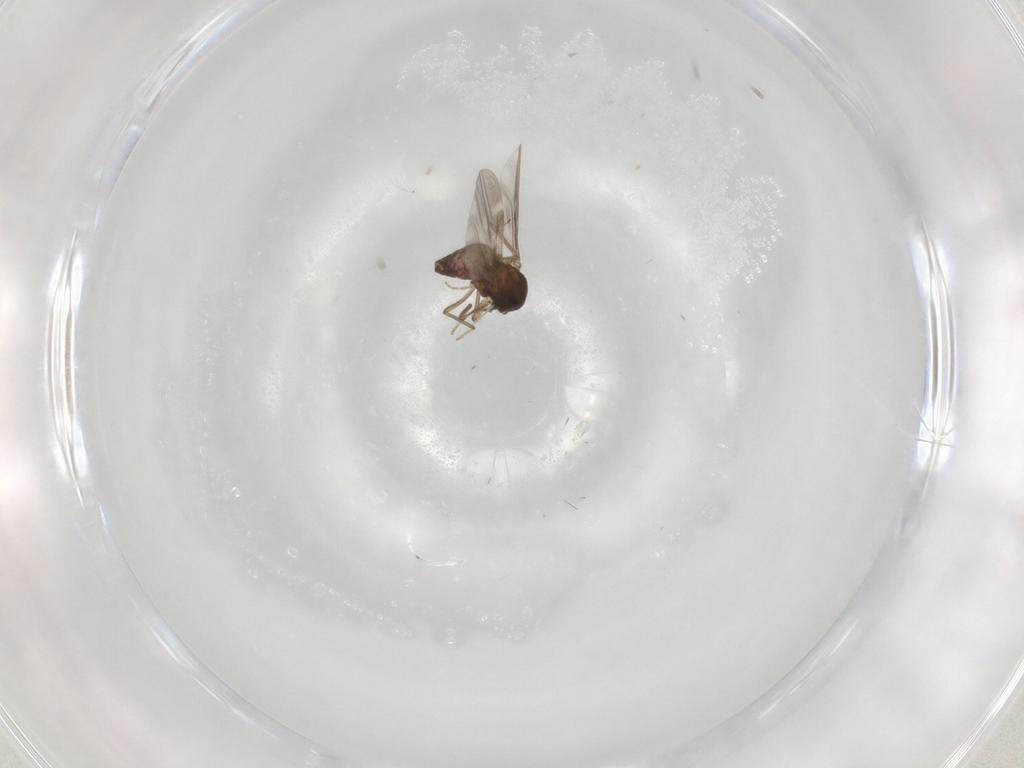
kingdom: Animalia
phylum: Arthropoda
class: Insecta
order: Diptera
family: Ceratopogonidae
